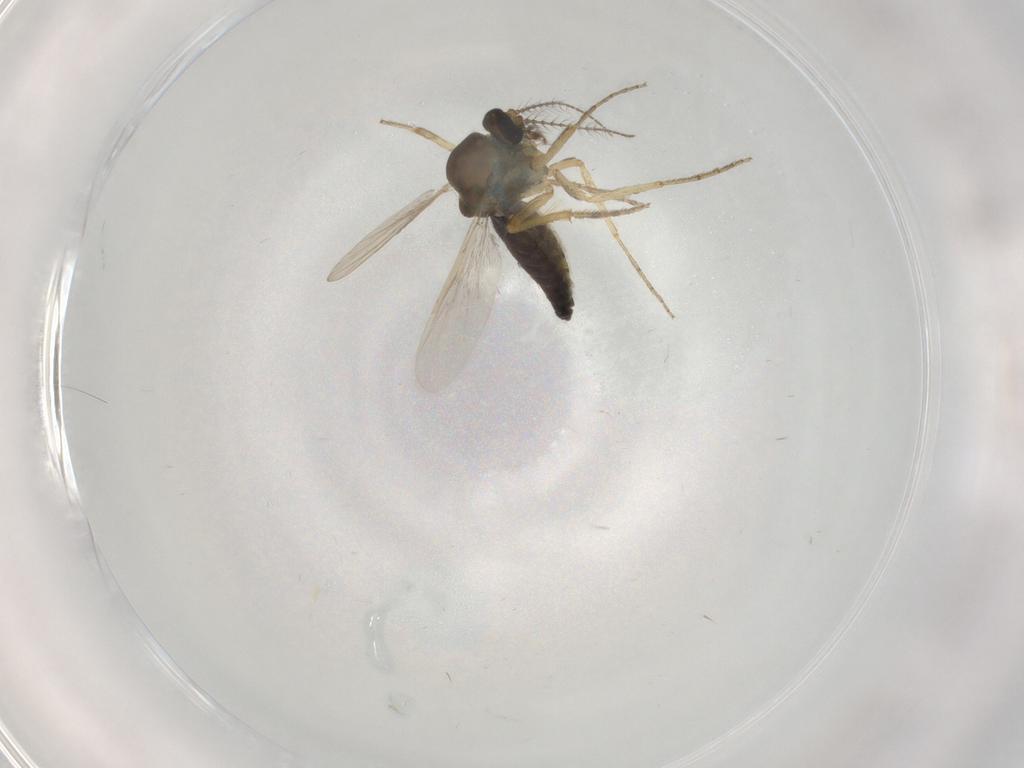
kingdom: Animalia
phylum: Arthropoda
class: Insecta
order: Diptera
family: Ceratopogonidae
